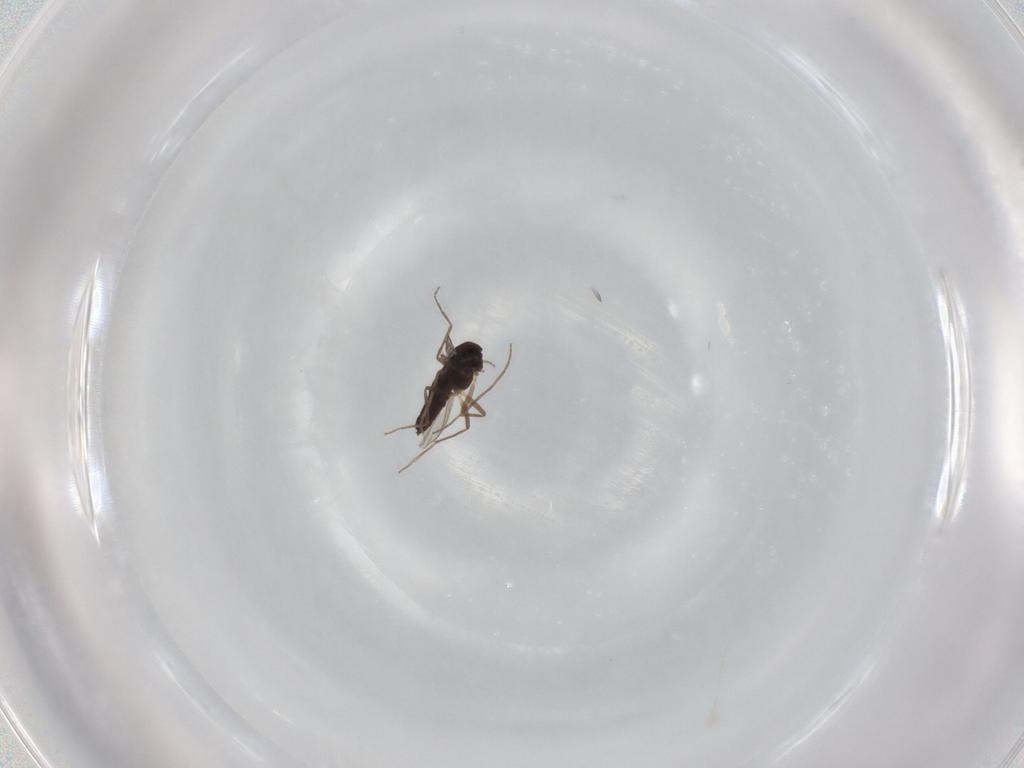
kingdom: Animalia
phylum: Arthropoda
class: Insecta
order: Diptera
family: Chironomidae
